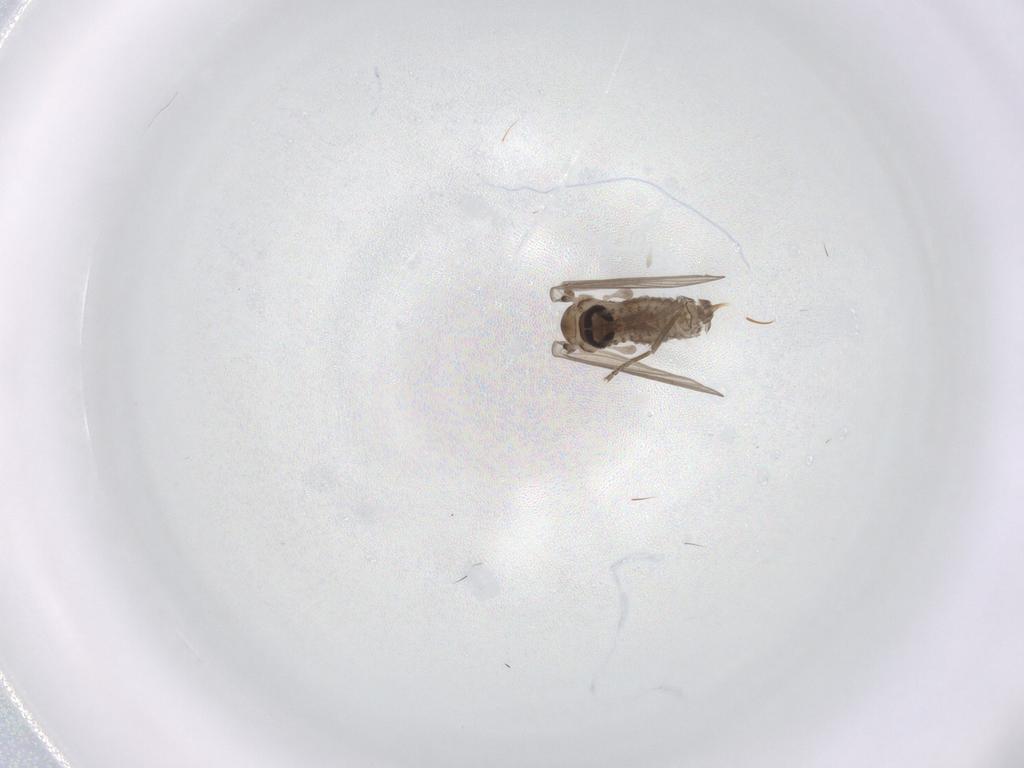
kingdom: Animalia
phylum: Arthropoda
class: Insecta
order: Diptera
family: Psychodidae
